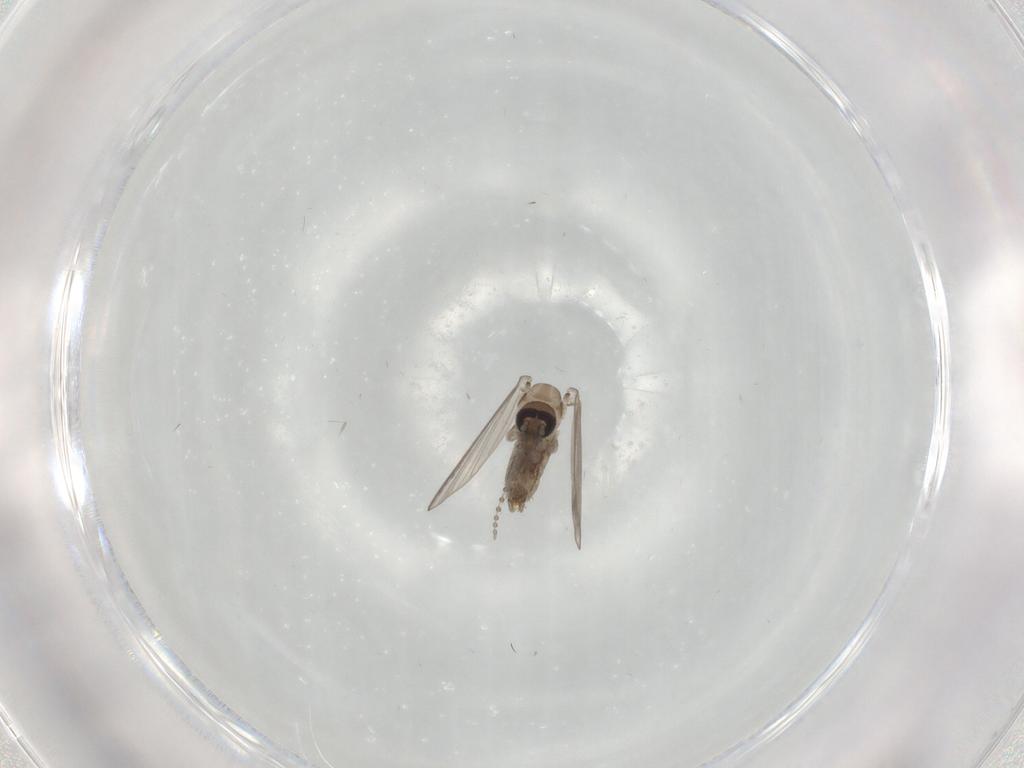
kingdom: Animalia
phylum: Arthropoda
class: Insecta
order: Diptera
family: Psychodidae
